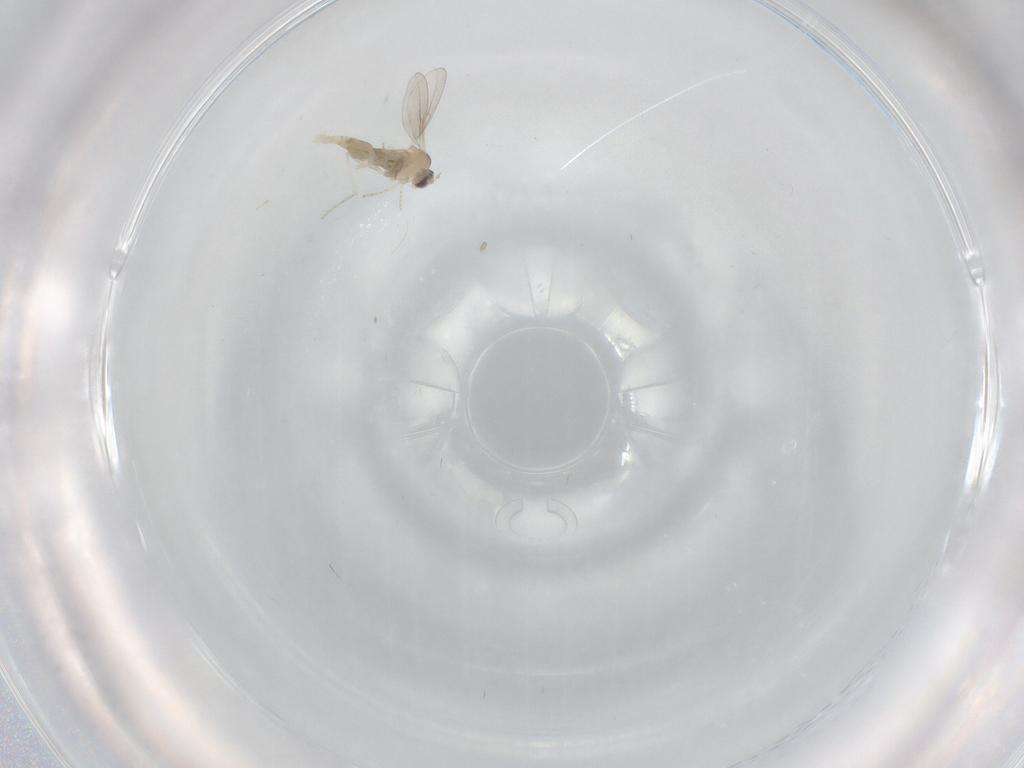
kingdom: Animalia
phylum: Arthropoda
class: Insecta
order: Diptera
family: Cecidomyiidae
